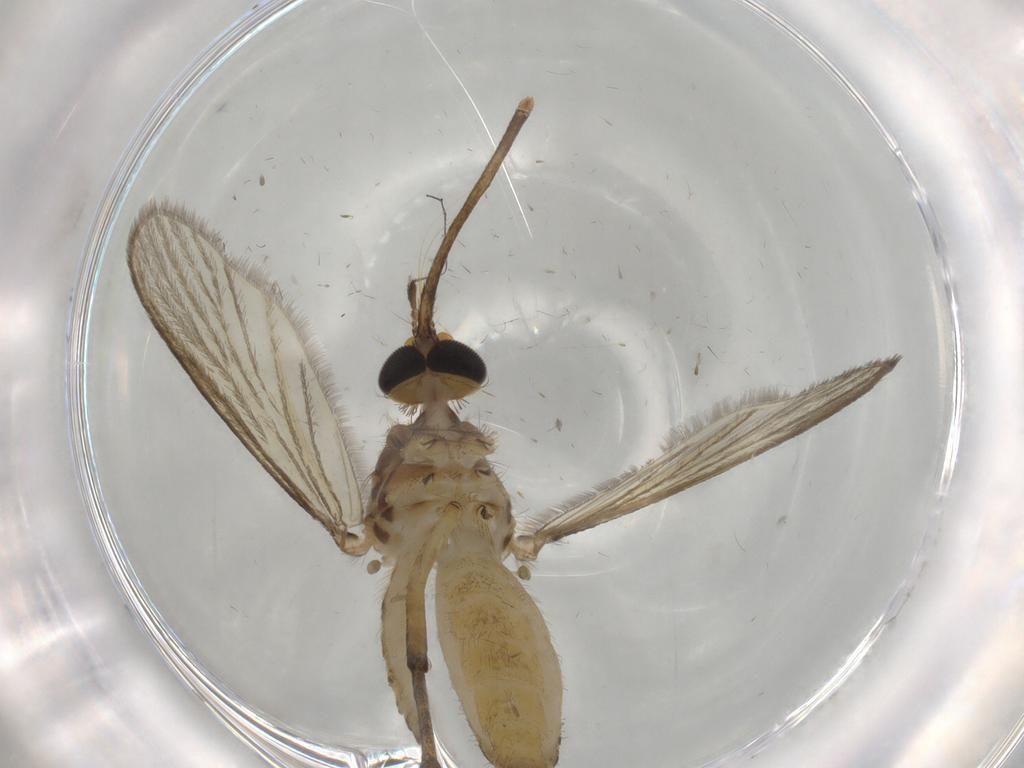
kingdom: Animalia
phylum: Arthropoda
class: Insecta
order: Diptera
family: Culicidae
